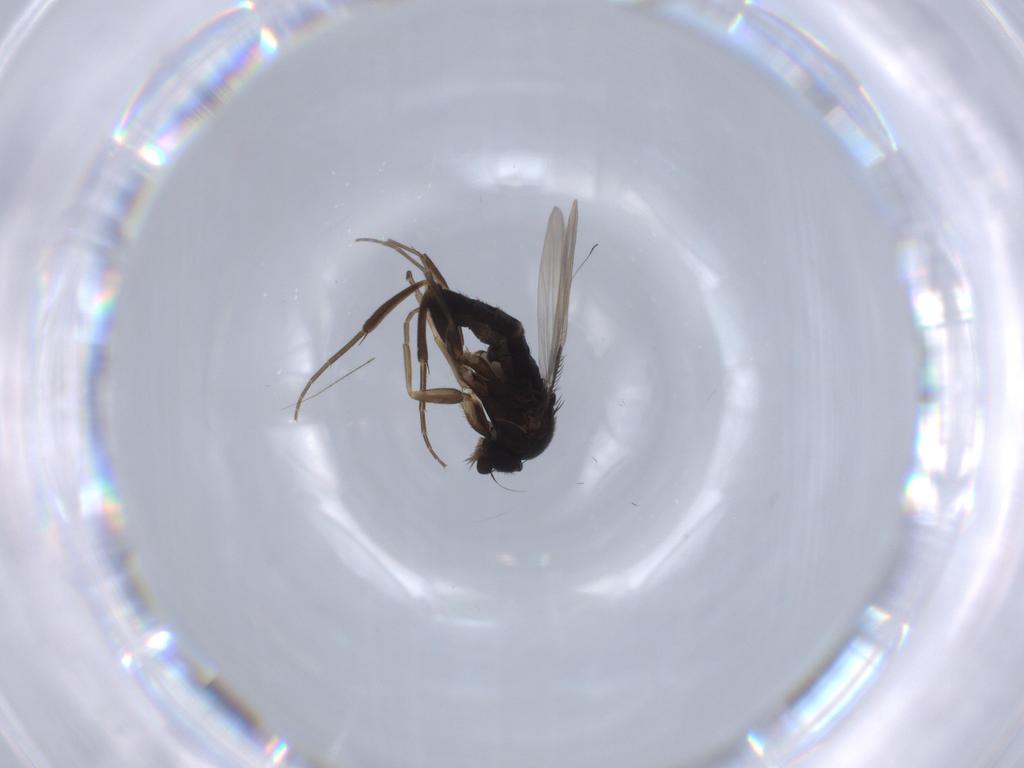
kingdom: Animalia
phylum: Arthropoda
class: Insecta
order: Diptera
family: Phoridae
